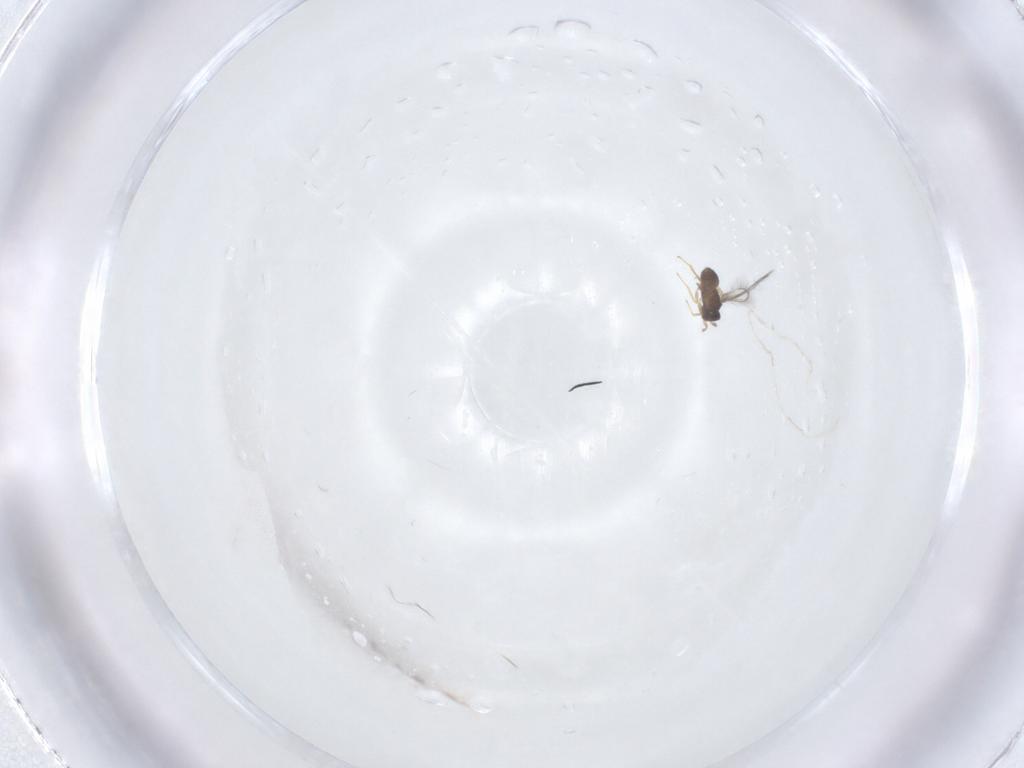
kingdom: Animalia
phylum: Arthropoda
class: Insecta
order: Hymenoptera
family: Mymaridae
